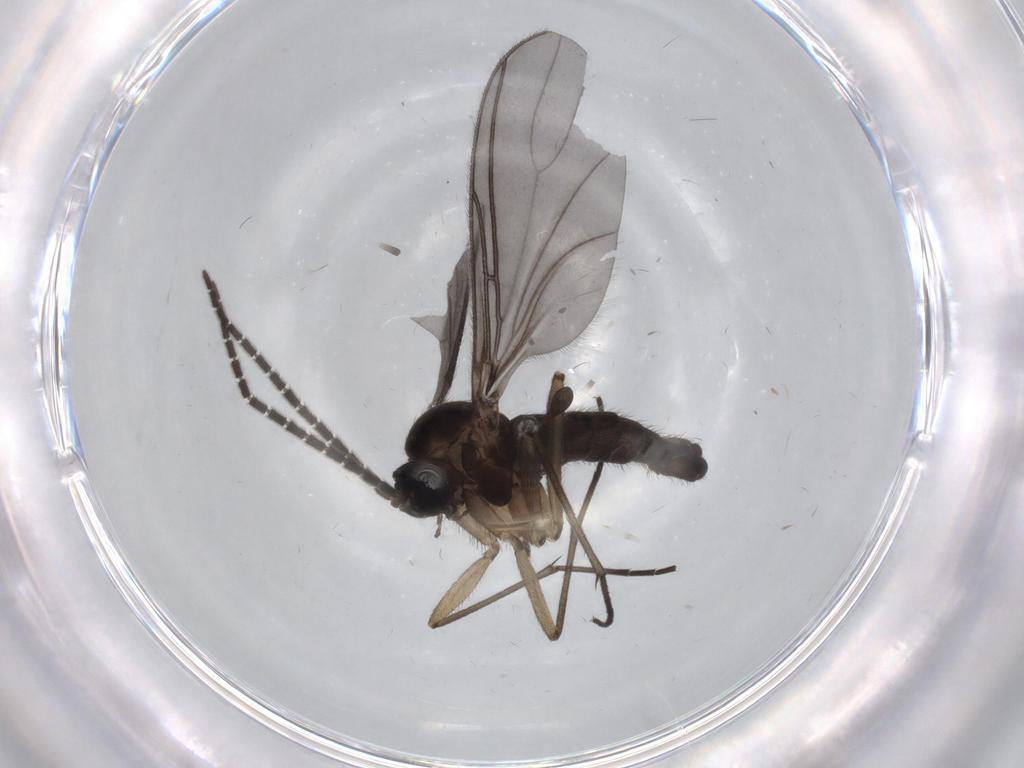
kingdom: Animalia
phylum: Arthropoda
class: Insecta
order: Diptera
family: Sciaridae
